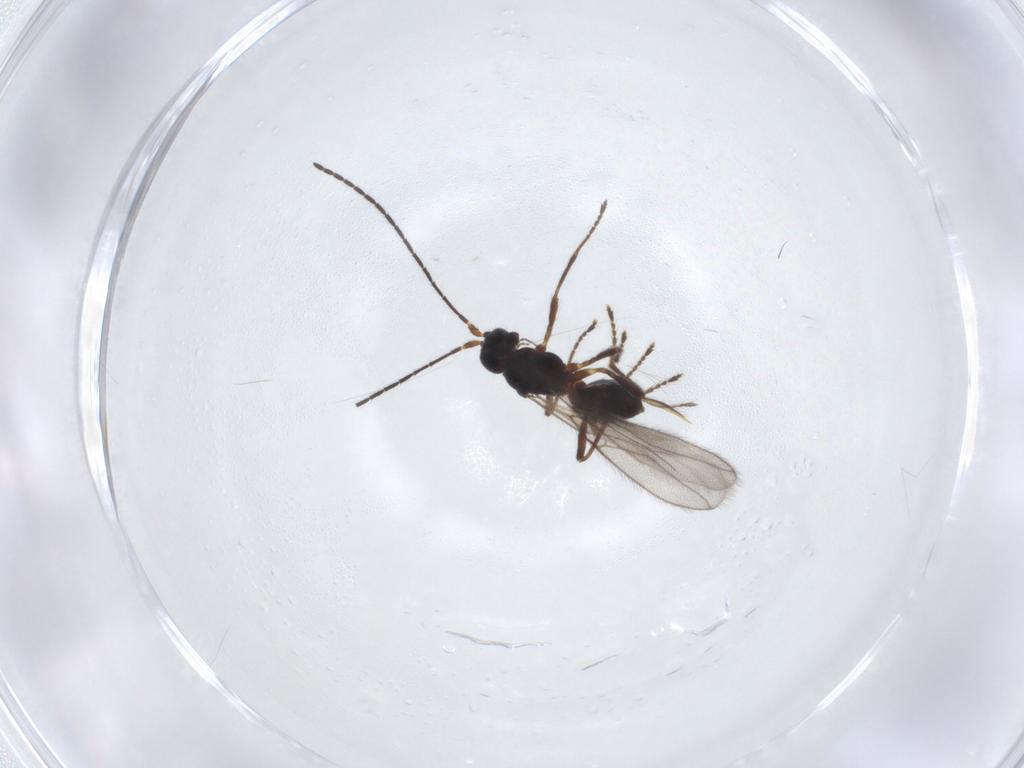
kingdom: Animalia
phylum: Arthropoda
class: Insecta
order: Hymenoptera
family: Braconidae
